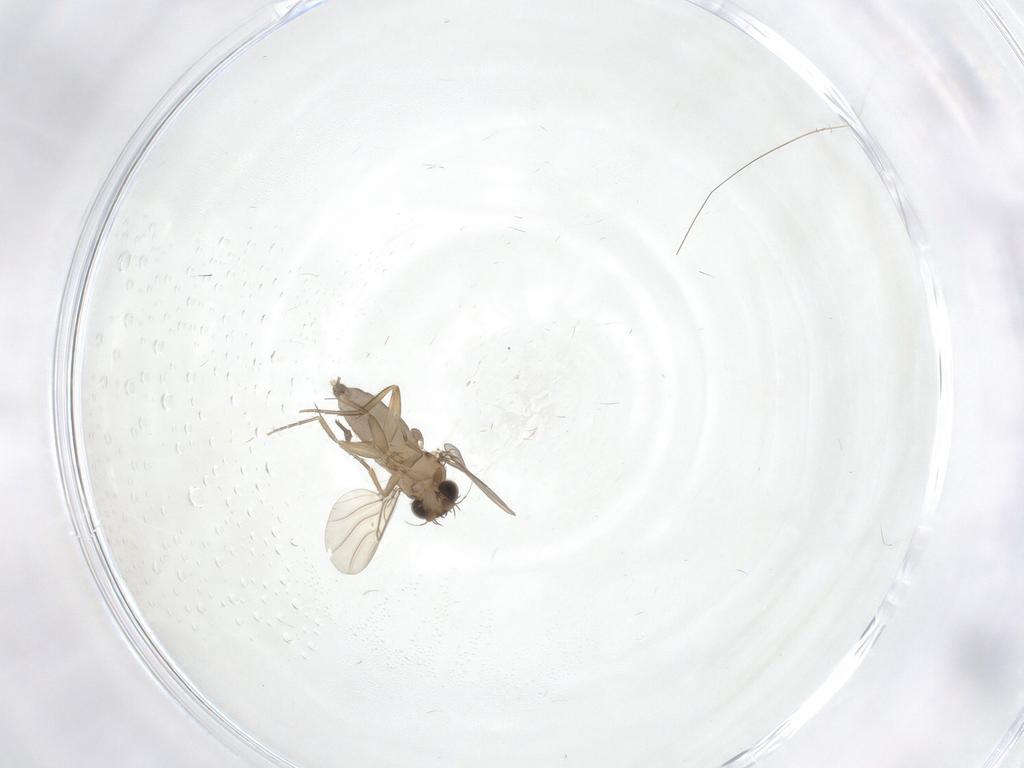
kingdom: Animalia
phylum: Arthropoda
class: Insecta
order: Diptera
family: Phoridae
